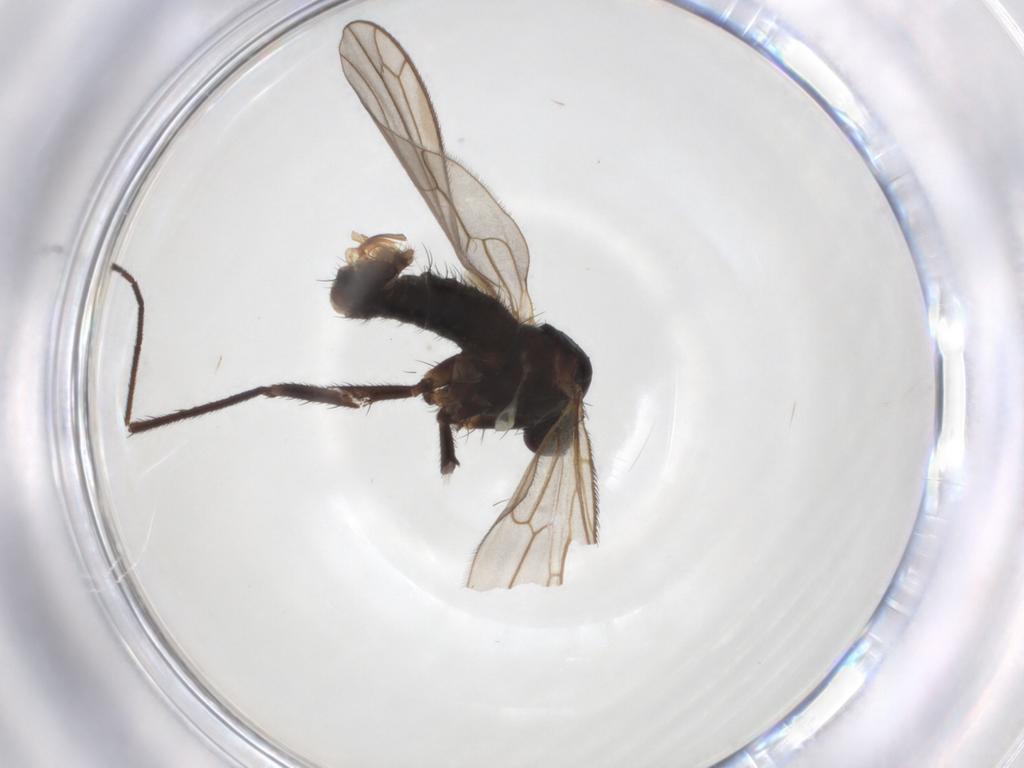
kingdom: Animalia
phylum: Arthropoda
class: Insecta
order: Diptera
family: Empididae
